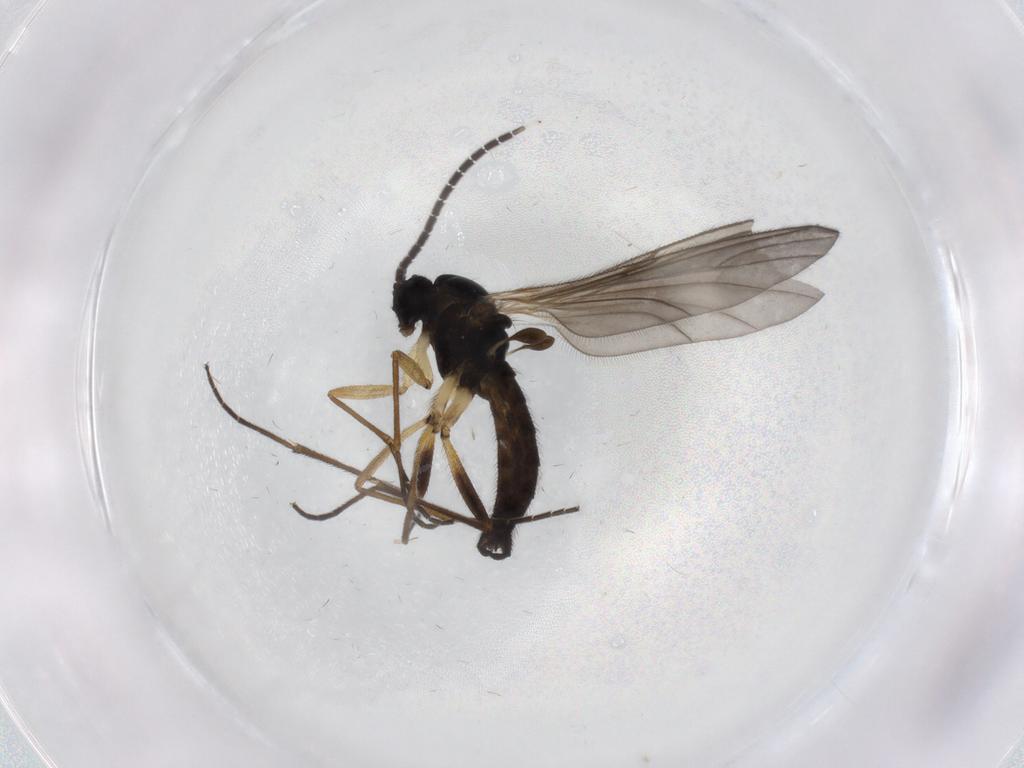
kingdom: Animalia
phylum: Arthropoda
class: Insecta
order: Diptera
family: Sciaridae
